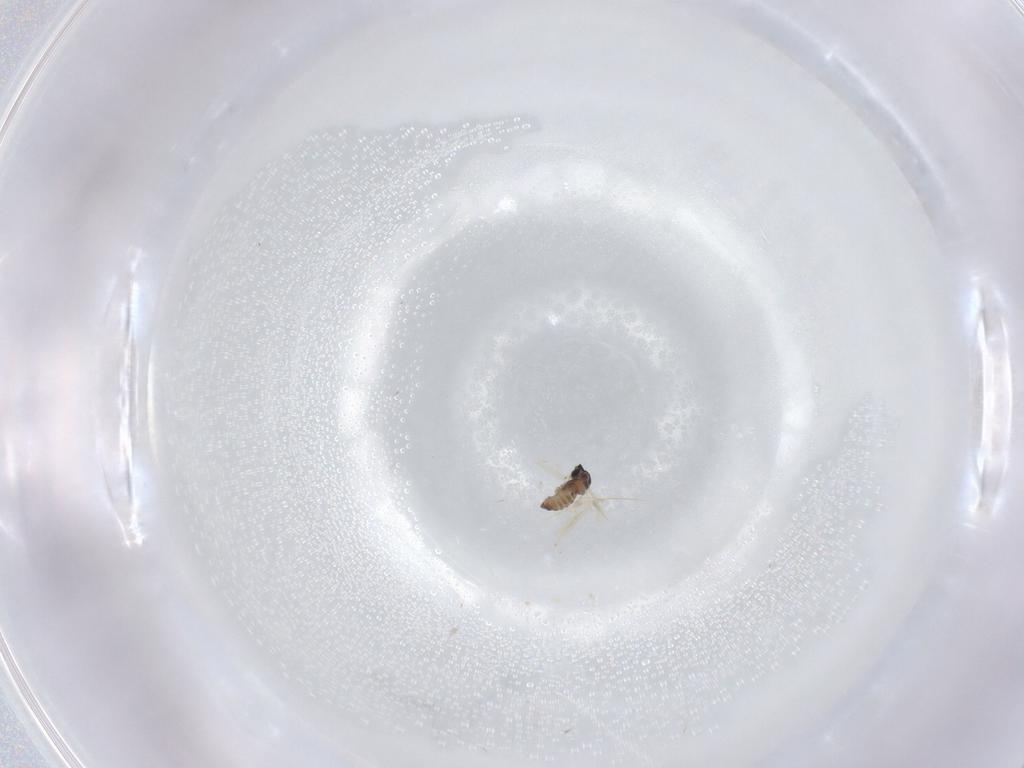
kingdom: Animalia
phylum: Arthropoda
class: Insecta
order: Diptera
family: Cecidomyiidae
